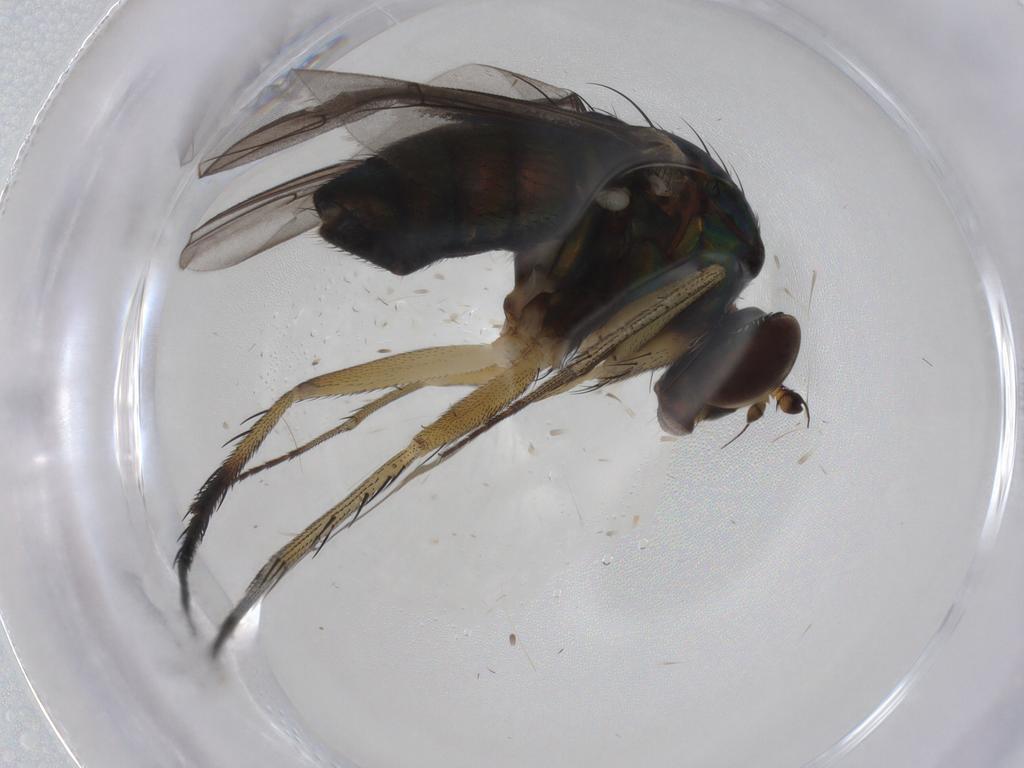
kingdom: Animalia
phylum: Arthropoda
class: Insecta
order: Diptera
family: Dolichopodidae
